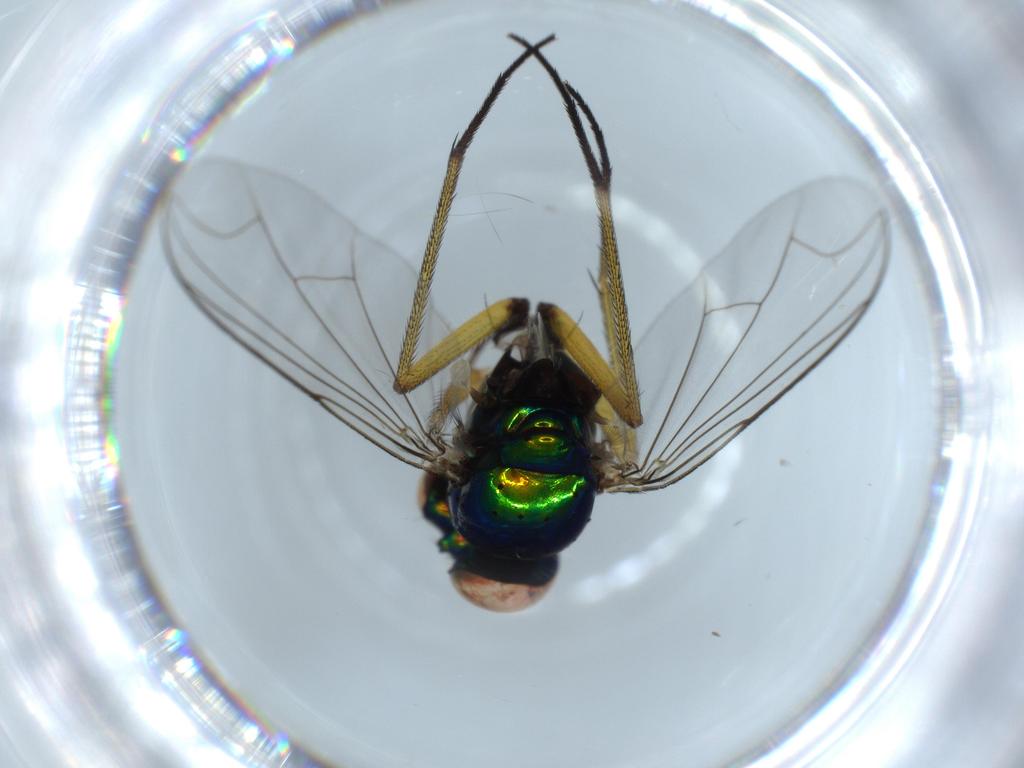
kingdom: Animalia
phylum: Arthropoda
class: Insecta
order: Diptera
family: Dolichopodidae
